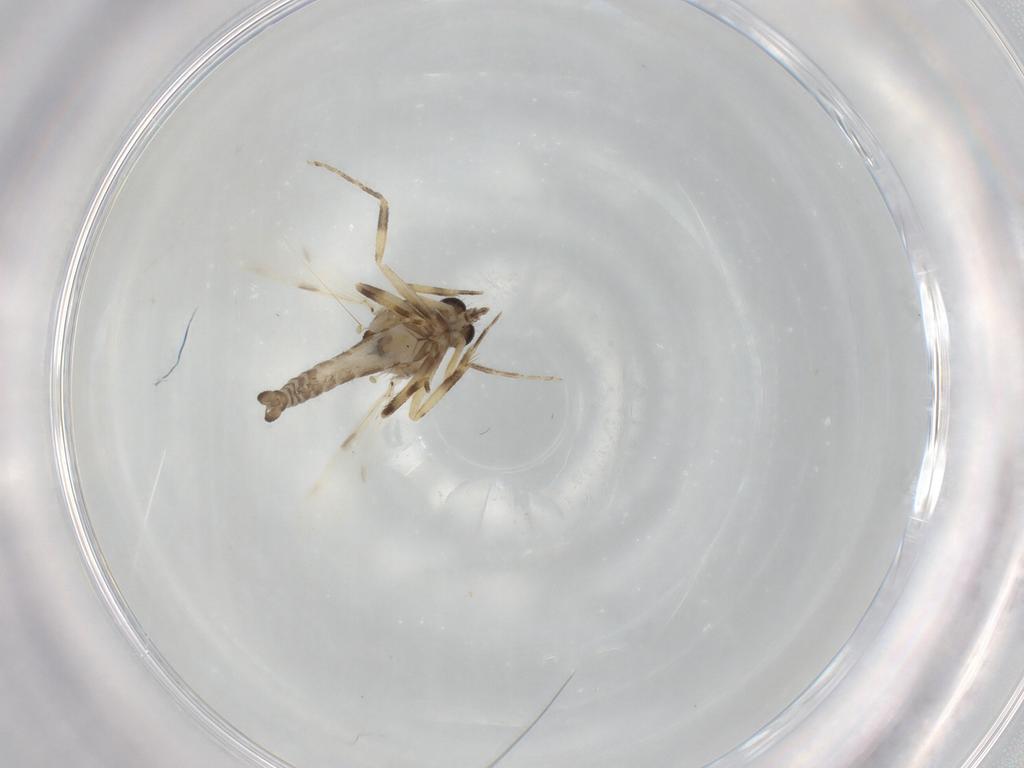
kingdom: Animalia
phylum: Arthropoda
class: Insecta
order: Diptera
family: Ceratopogonidae
